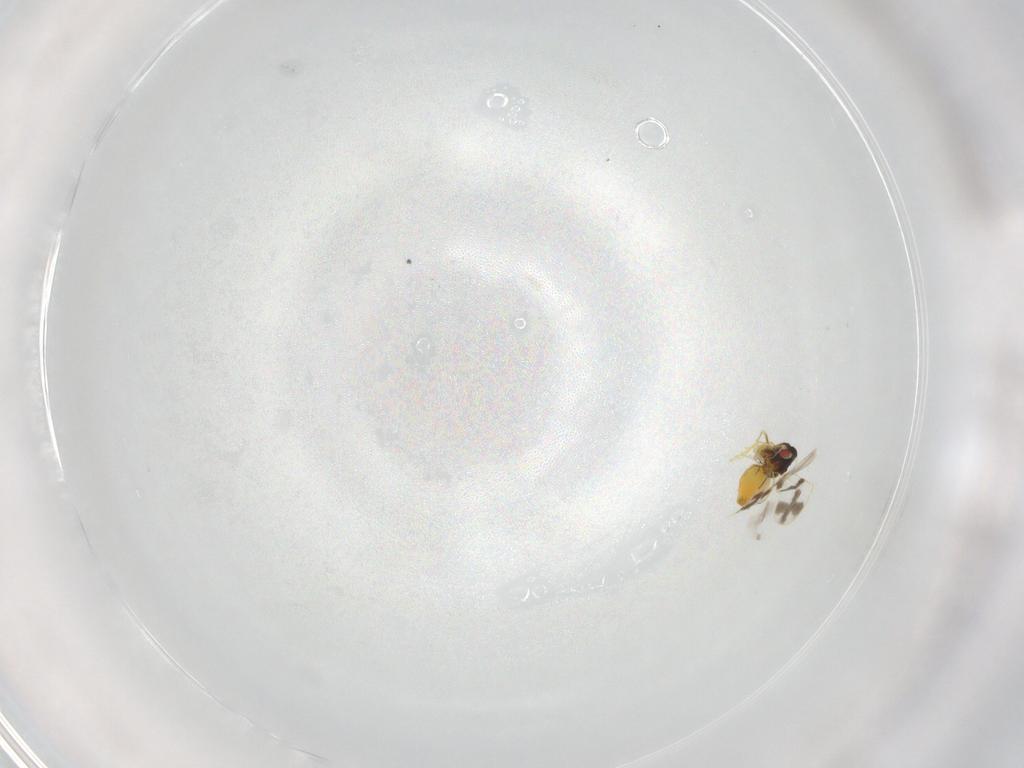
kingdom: Animalia
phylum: Arthropoda
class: Insecta
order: Hemiptera
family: Aleyrodidae
